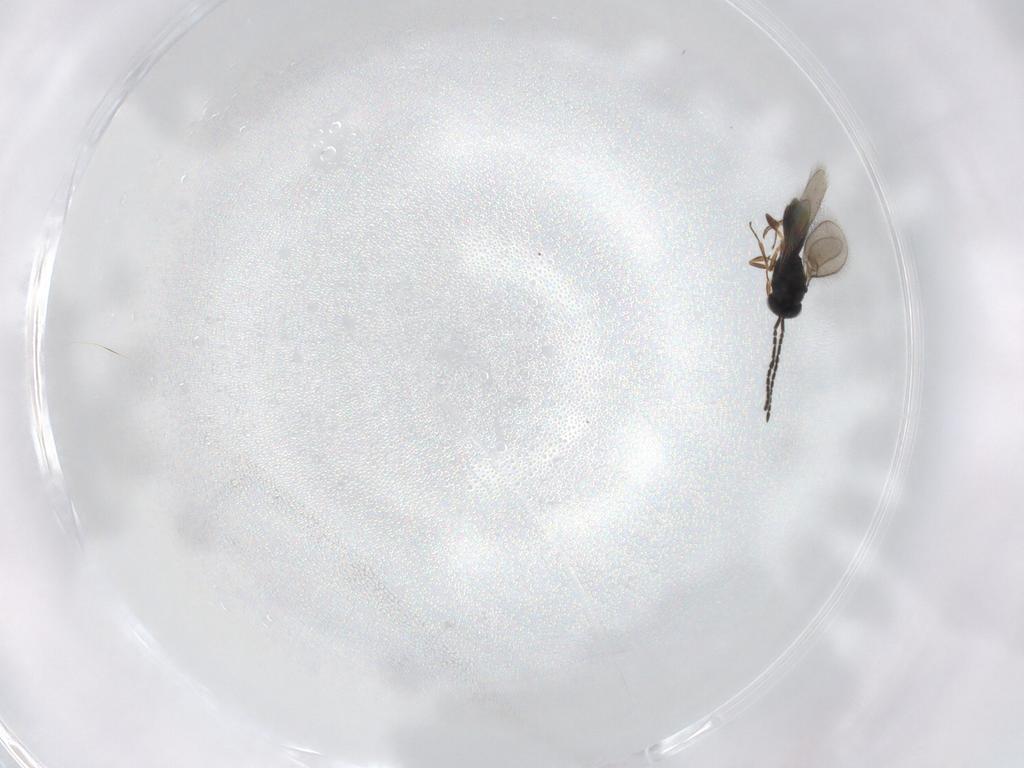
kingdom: Animalia
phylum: Arthropoda
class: Insecta
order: Hymenoptera
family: Scelionidae
